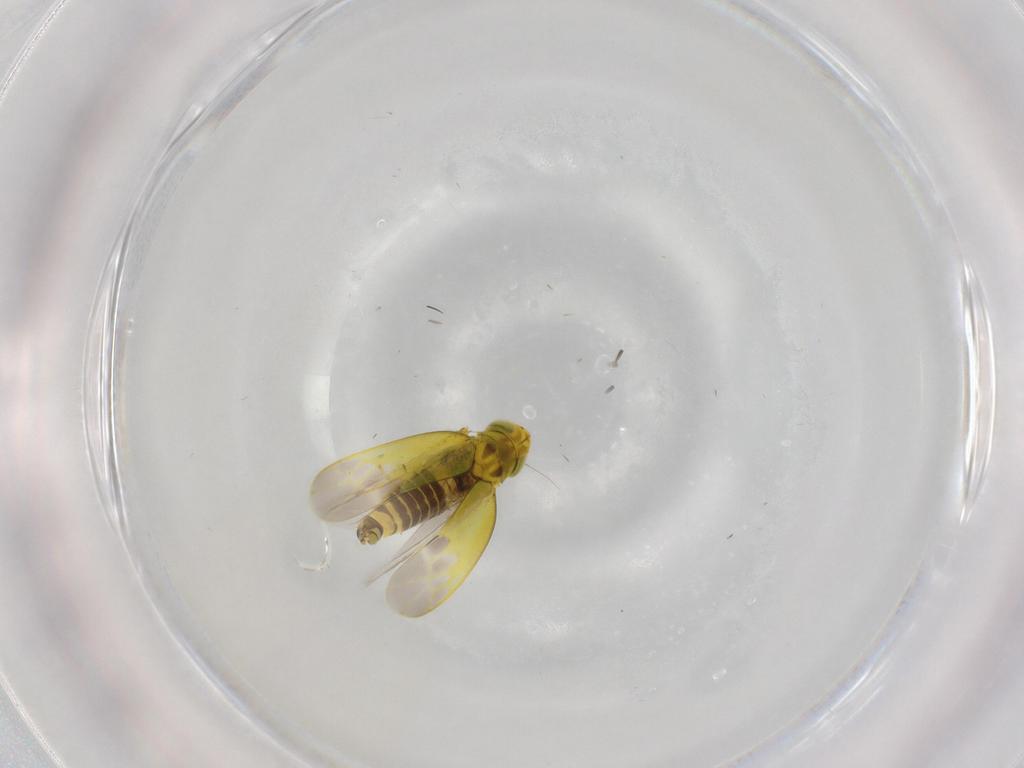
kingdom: Animalia
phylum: Arthropoda
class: Insecta
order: Hemiptera
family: Cicadellidae
